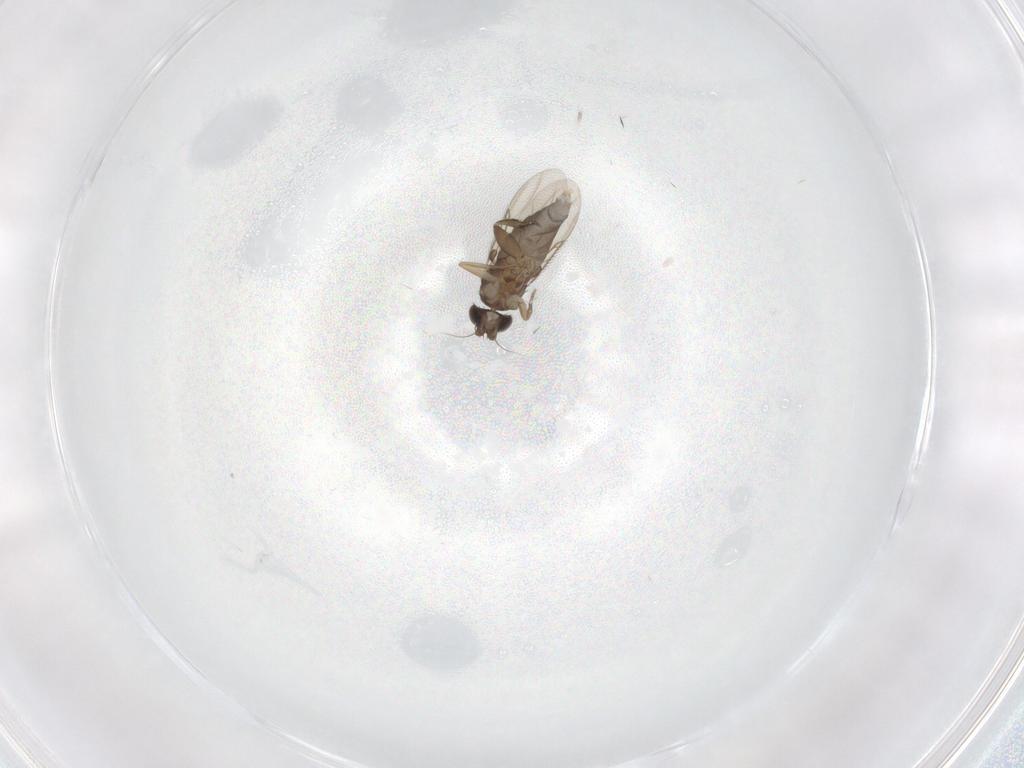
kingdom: Animalia
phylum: Arthropoda
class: Insecta
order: Diptera
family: Phoridae
